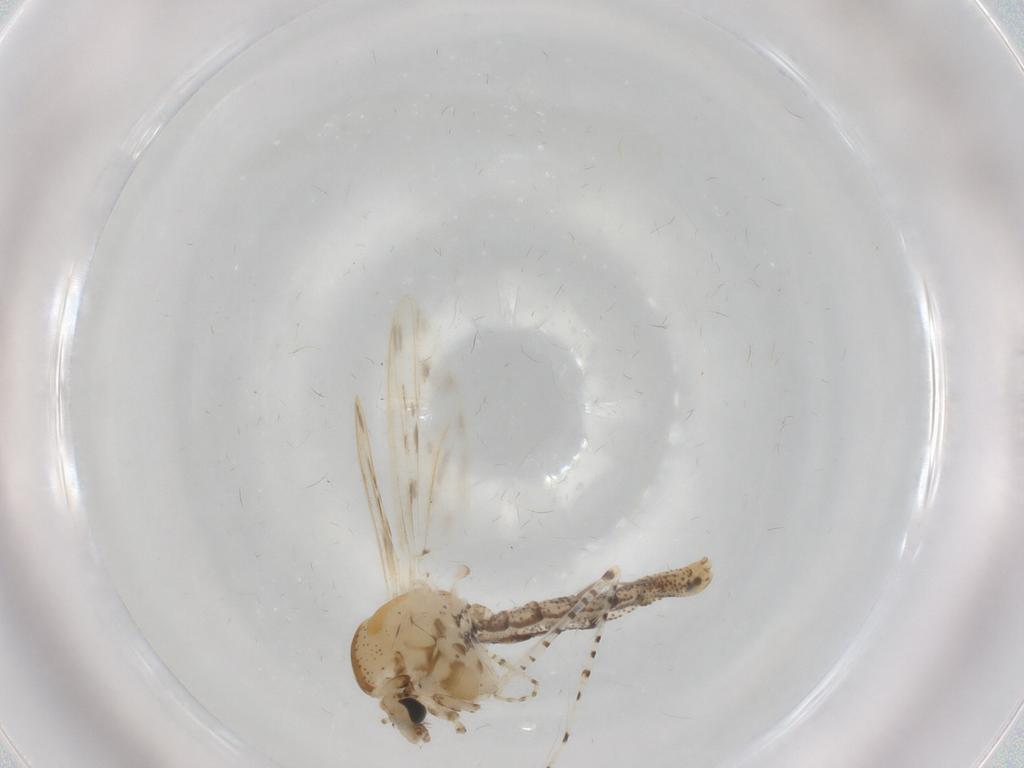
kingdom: Animalia
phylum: Arthropoda
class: Insecta
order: Diptera
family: Chaoboridae
